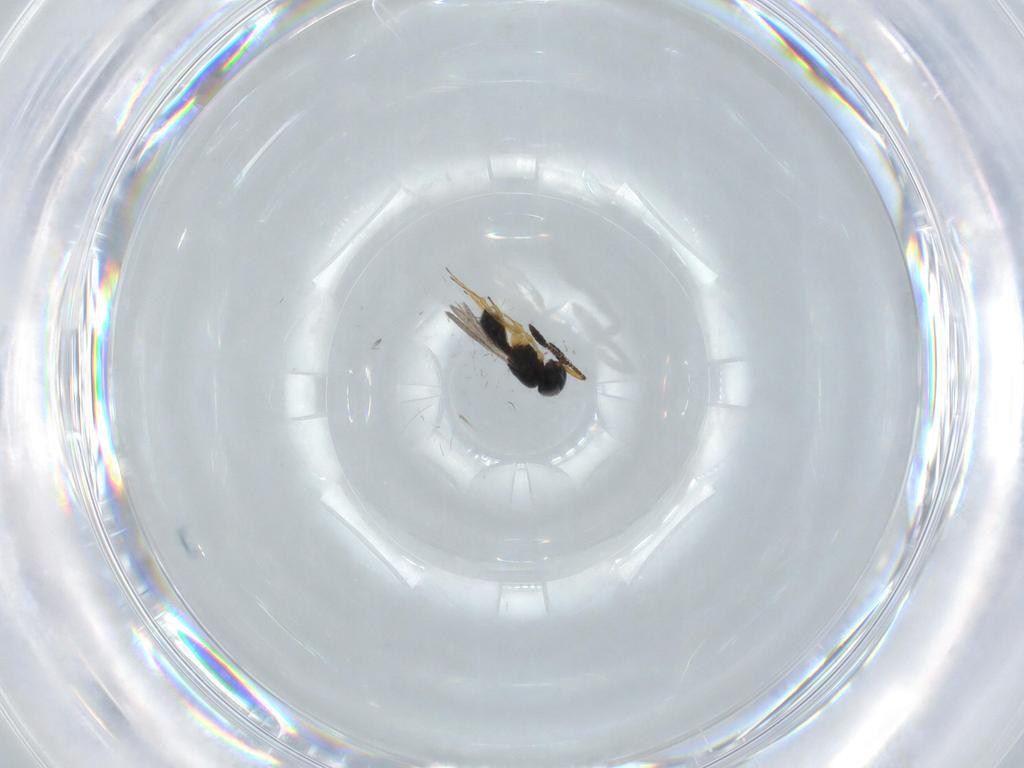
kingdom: Animalia
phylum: Arthropoda
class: Insecta
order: Hymenoptera
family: Scelionidae
